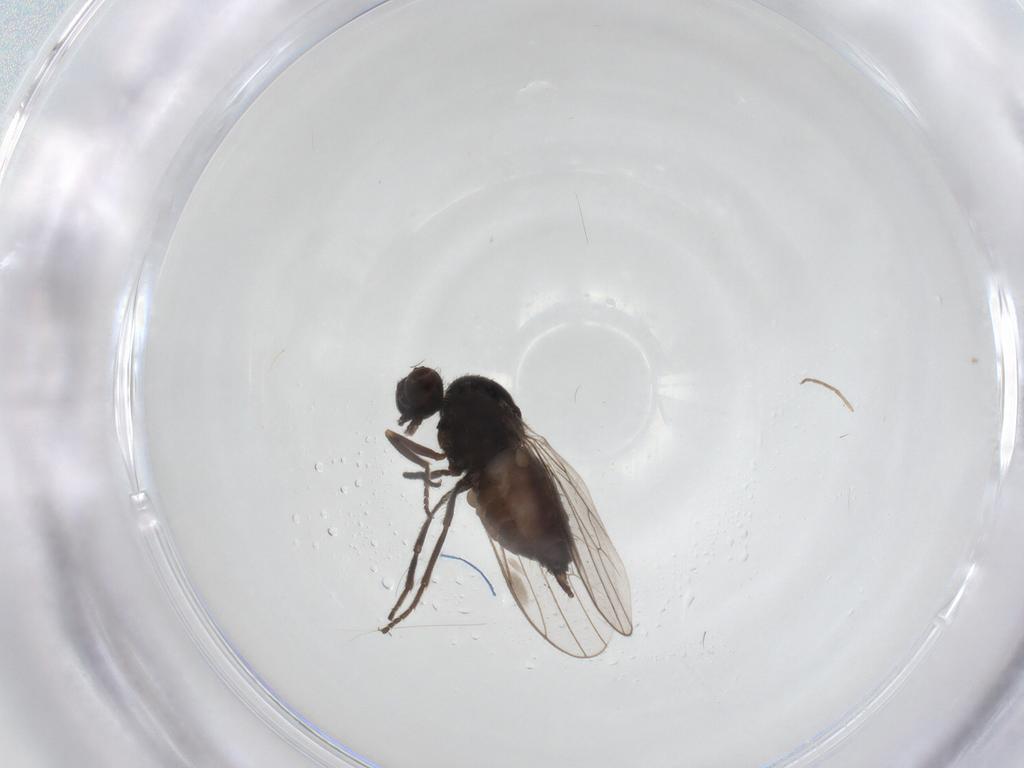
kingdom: Animalia
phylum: Arthropoda
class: Insecta
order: Diptera
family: Hybotidae
